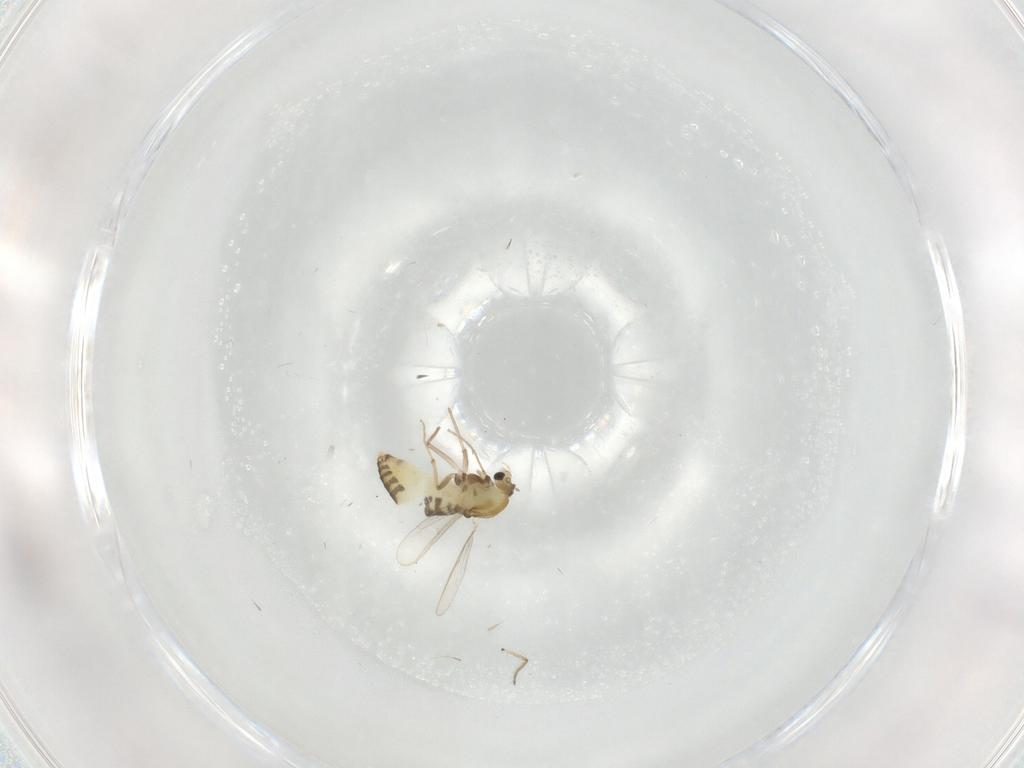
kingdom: Animalia
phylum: Arthropoda
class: Insecta
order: Diptera
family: Chironomidae
